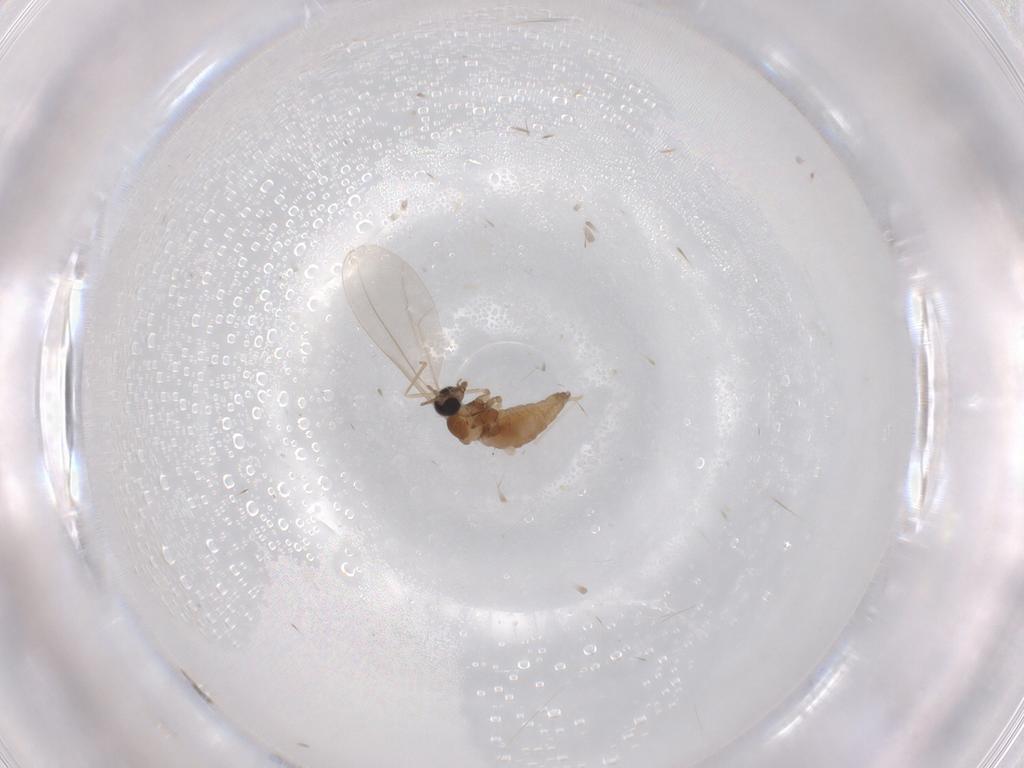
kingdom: Animalia
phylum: Arthropoda
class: Insecta
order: Diptera
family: Cecidomyiidae
